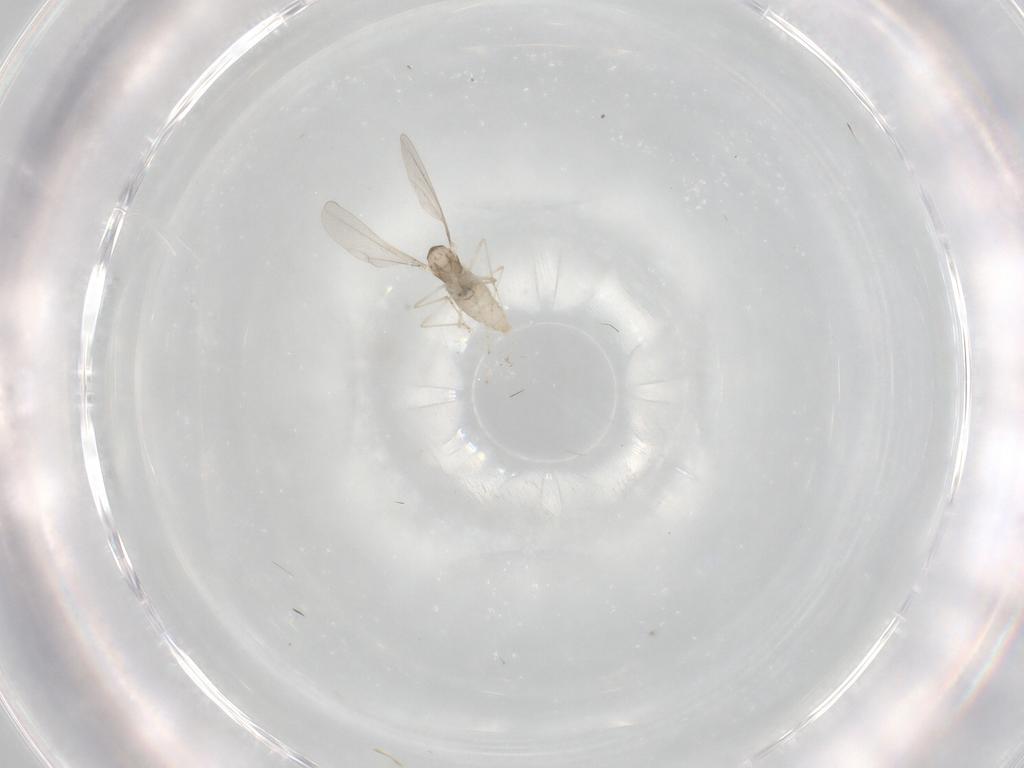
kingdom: Animalia
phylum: Arthropoda
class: Insecta
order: Diptera
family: Cecidomyiidae
